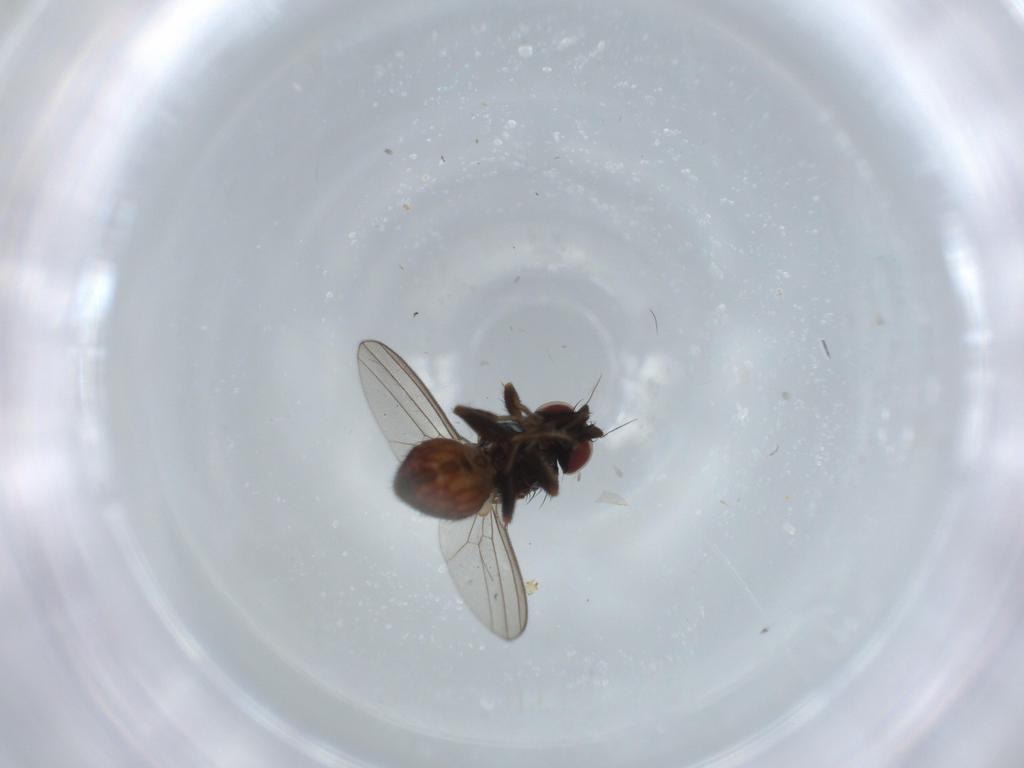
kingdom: Animalia
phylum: Arthropoda
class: Insecta
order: Diptera
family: Milichiidae
